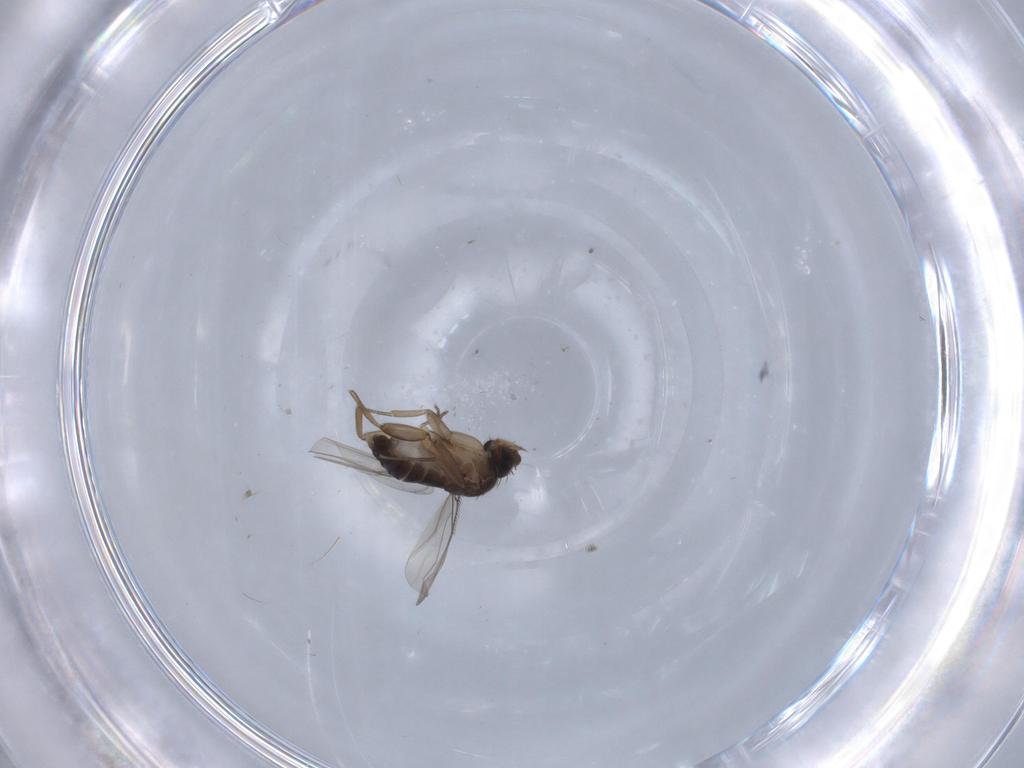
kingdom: Animalia
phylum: Arthropoda
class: Insecta
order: Diptera
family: Phoridae
